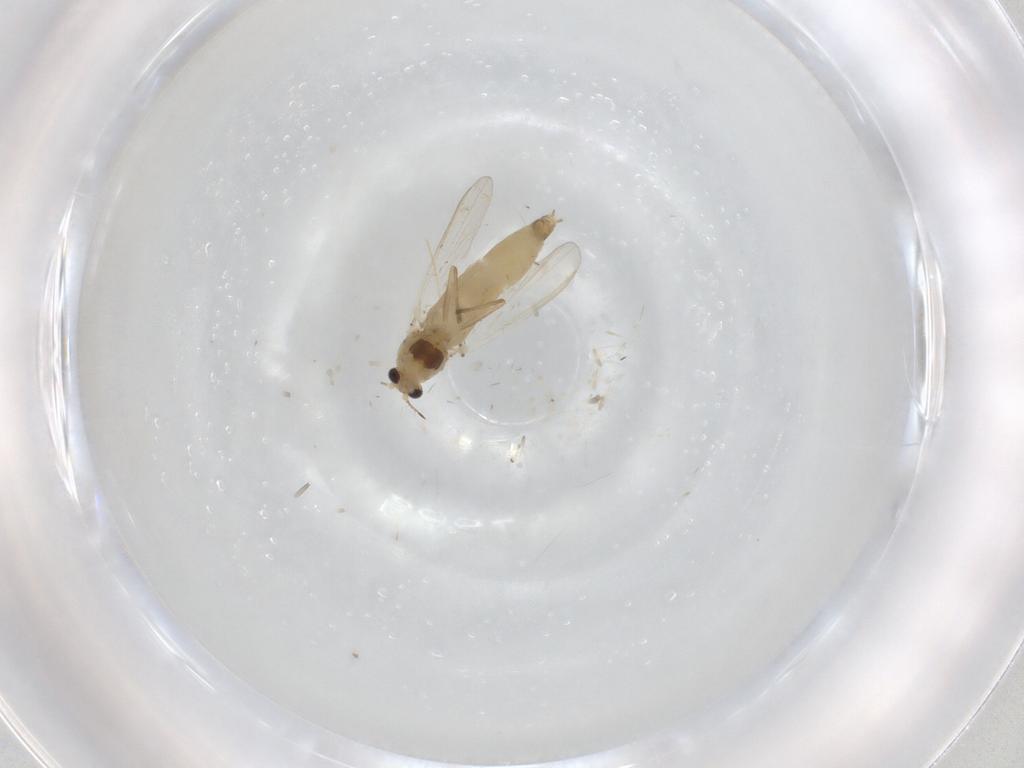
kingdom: Animalia
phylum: Arthropoda
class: Insecta
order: Diptera
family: Chironomidae
